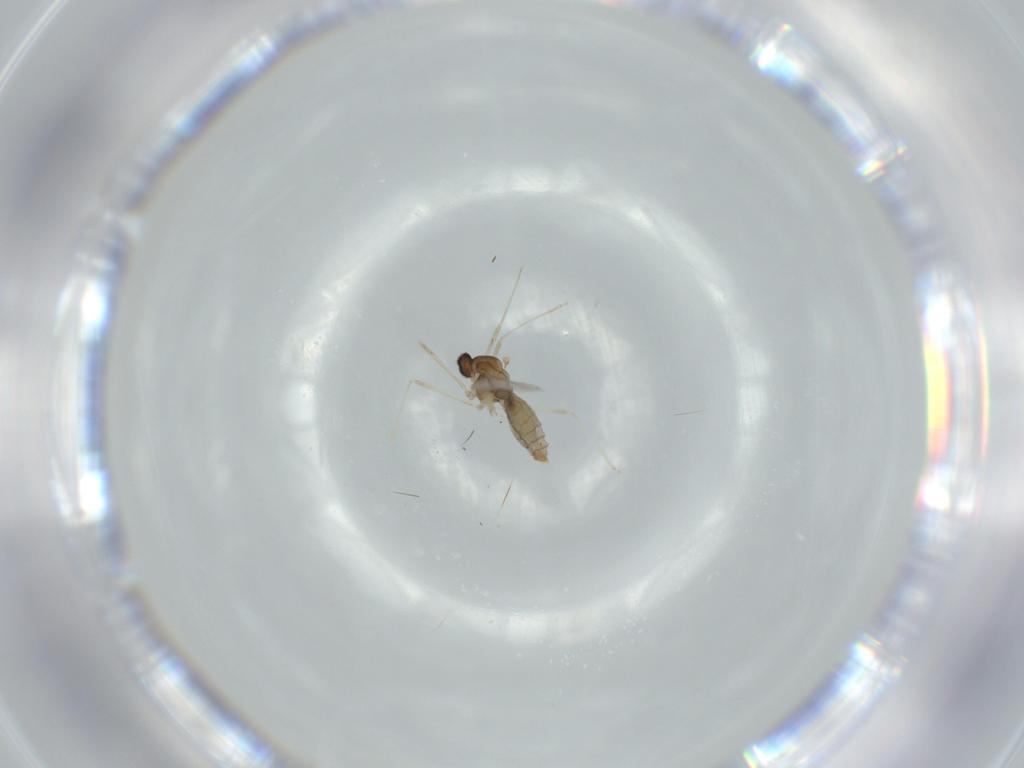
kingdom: Animalia
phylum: Arthropoda
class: Insecta
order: Diptera
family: Cecidomyiidae
